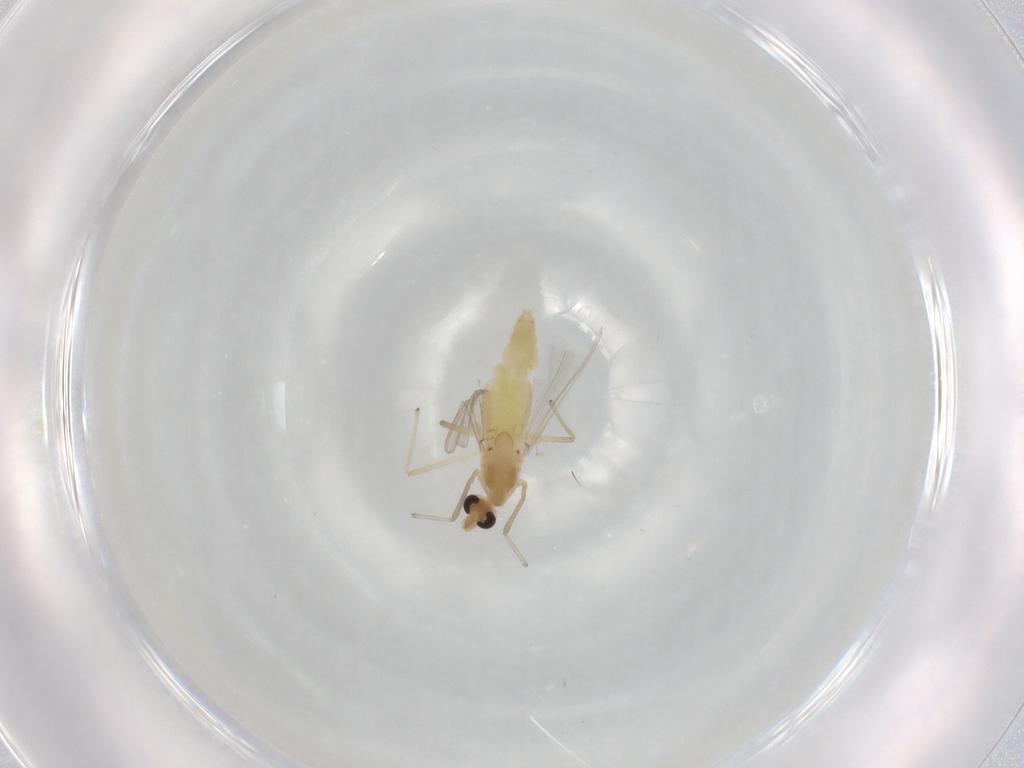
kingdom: Animalia
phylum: Arthropoda
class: Insecta
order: Diptera
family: Chironomidae
